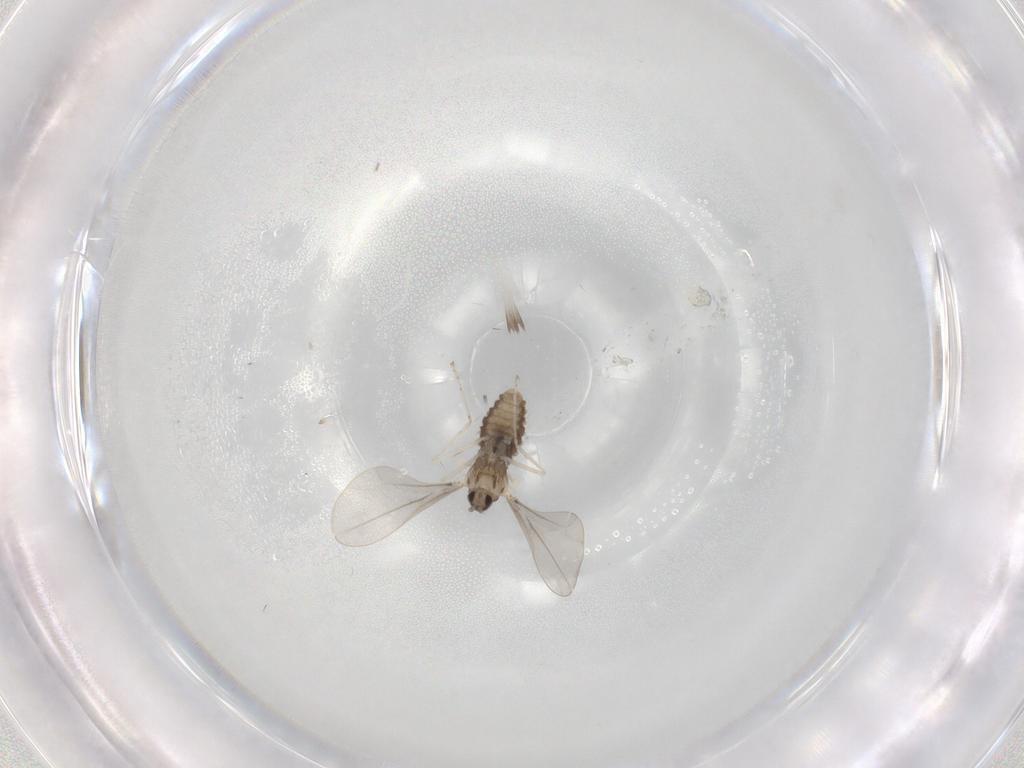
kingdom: Animalia
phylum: Arthropoda
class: Insecta
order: Diptera
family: Cecidomyiidae
